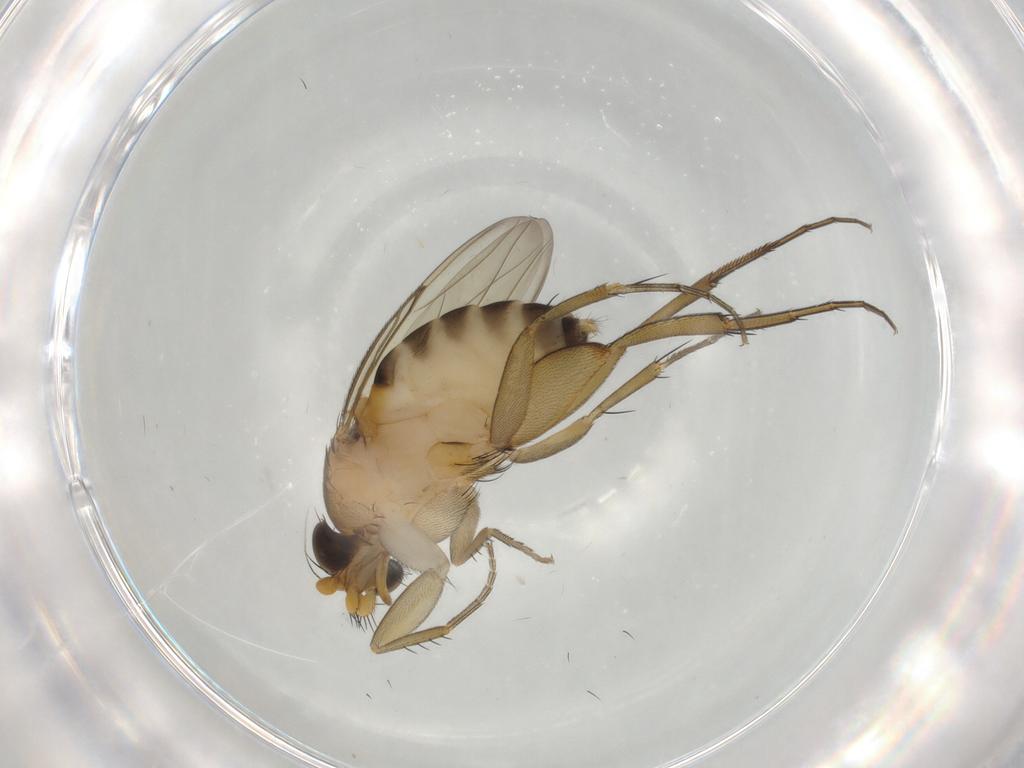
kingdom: Animalia
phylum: Arthropoda
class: Insecta
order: Diptera
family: Phoridae
